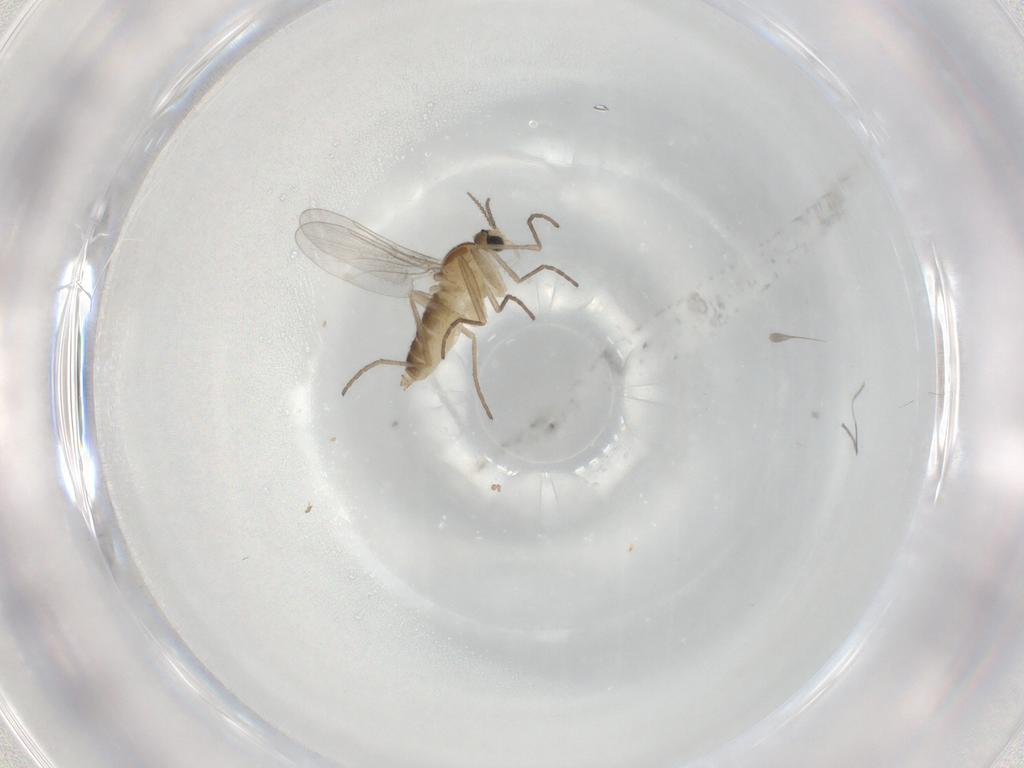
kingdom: Animalia
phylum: Arthropoda
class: Insecta
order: Diptera
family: Cecidomyiidae
